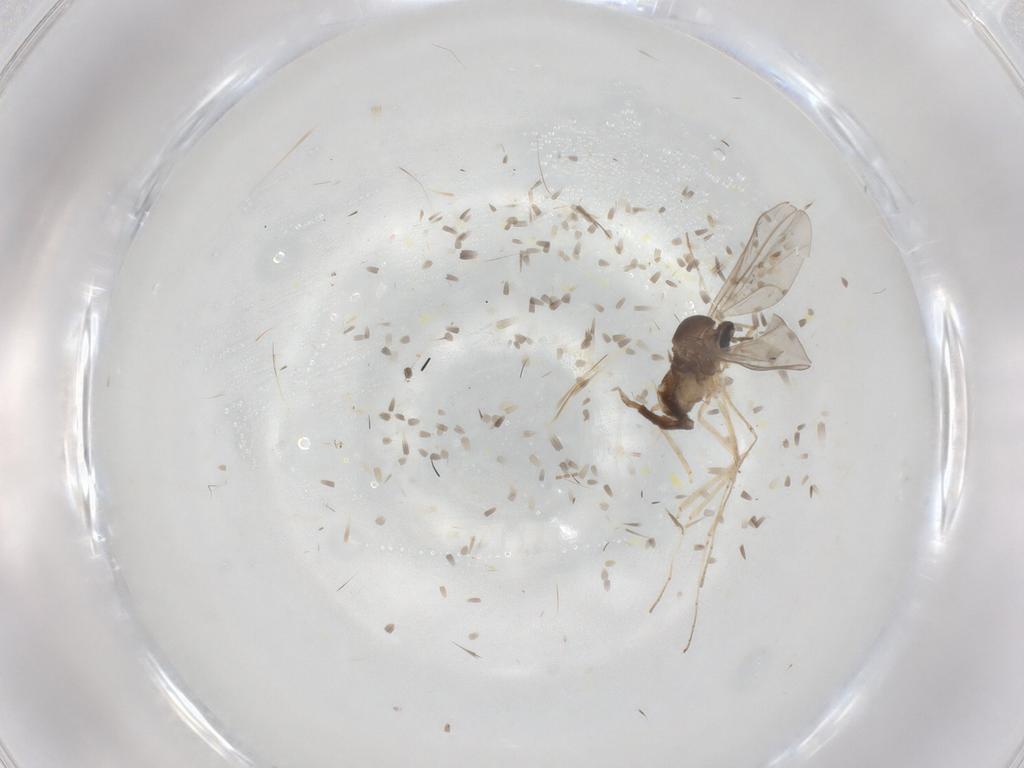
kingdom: Animalia
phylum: Arthropoda
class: Insecta
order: Diptera
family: Cecidomyiidae
